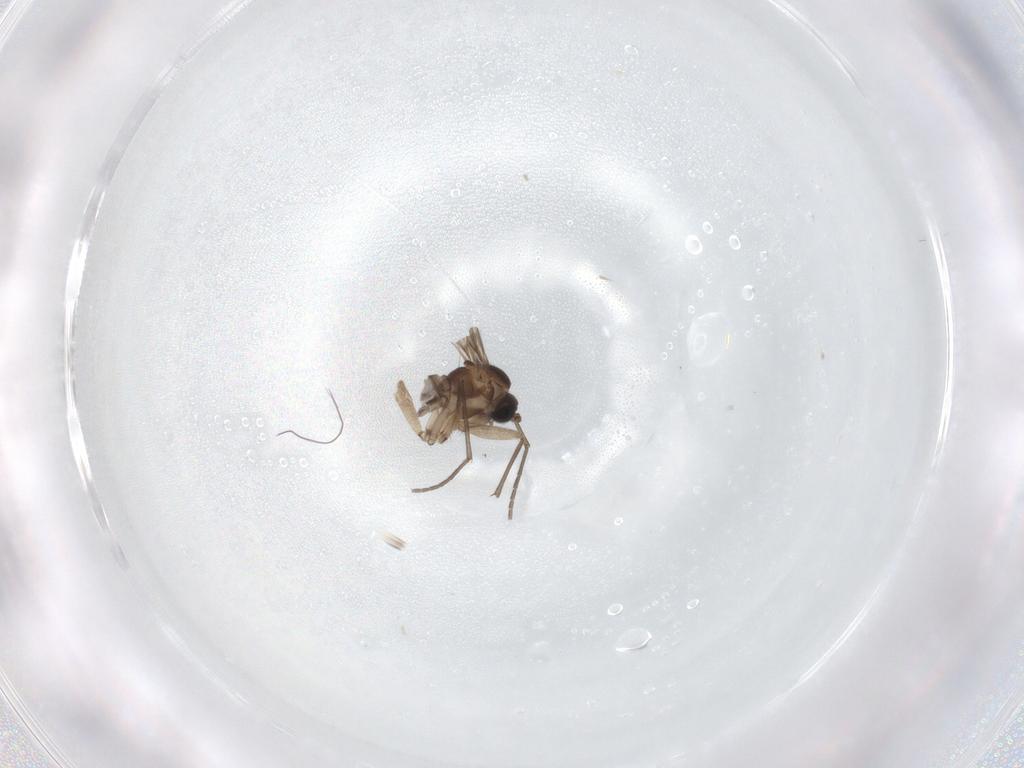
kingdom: Animalia
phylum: Arthropoda
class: Insecta
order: Diptera
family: Sciaridae
